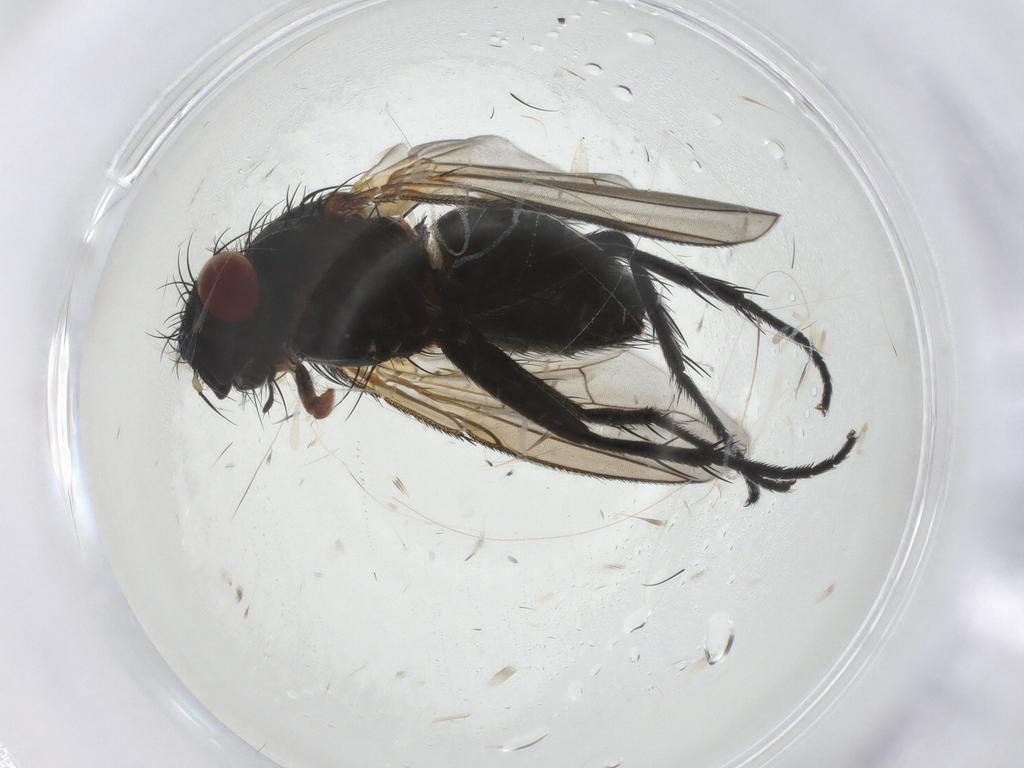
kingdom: Animalia
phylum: Arthropoda
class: Insecta
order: Diptera
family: Tachinidae
